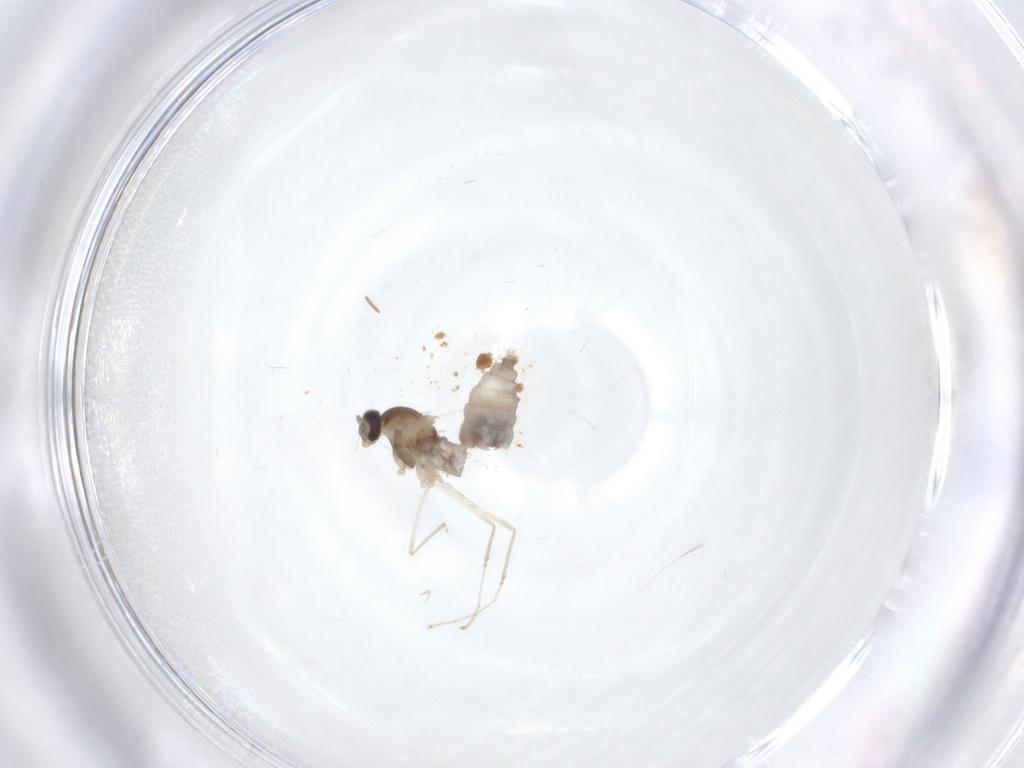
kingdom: Animalia
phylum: Arthropoda
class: Insecta
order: Diptera
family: Cecidomyiidae
